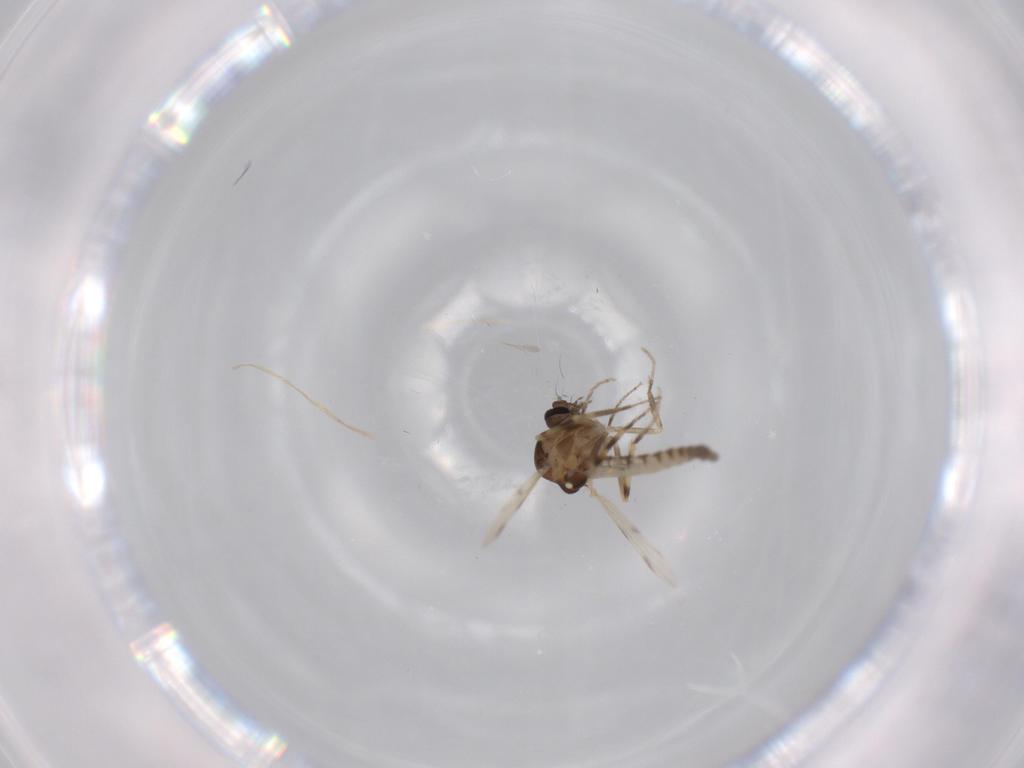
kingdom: Animalia
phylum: Arthropoda
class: Insecta
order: Diptera
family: Ceratopogonidae
